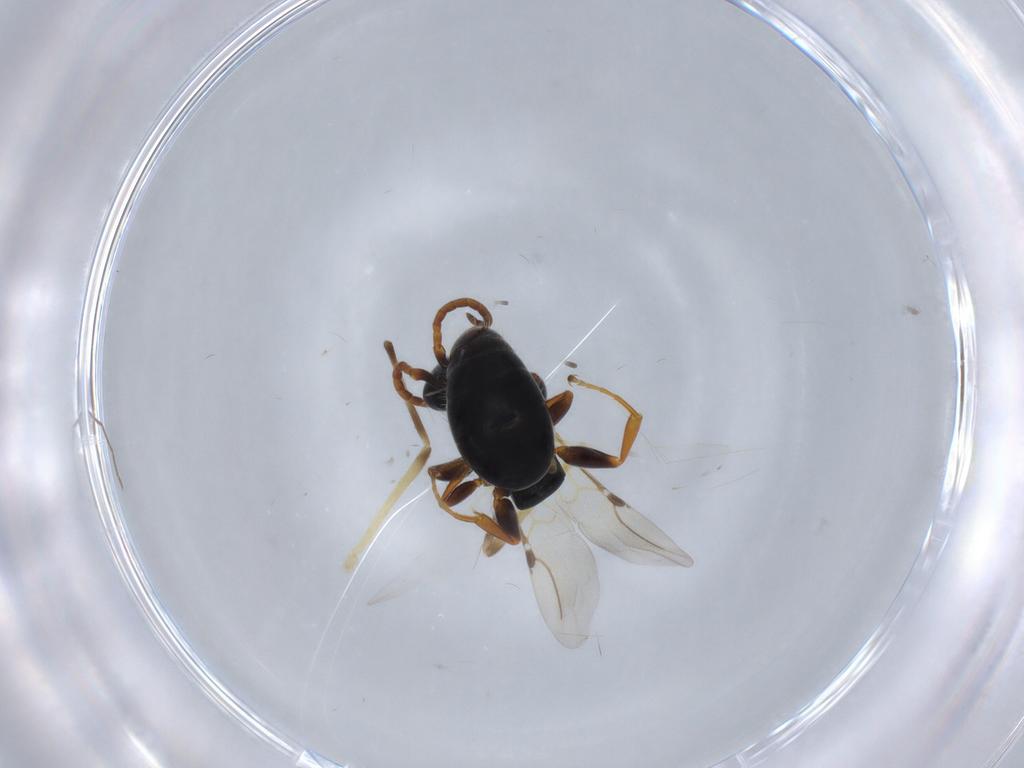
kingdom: Animalia
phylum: Arthropoda
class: Insecta
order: Hymenoptera
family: Bethylidae
